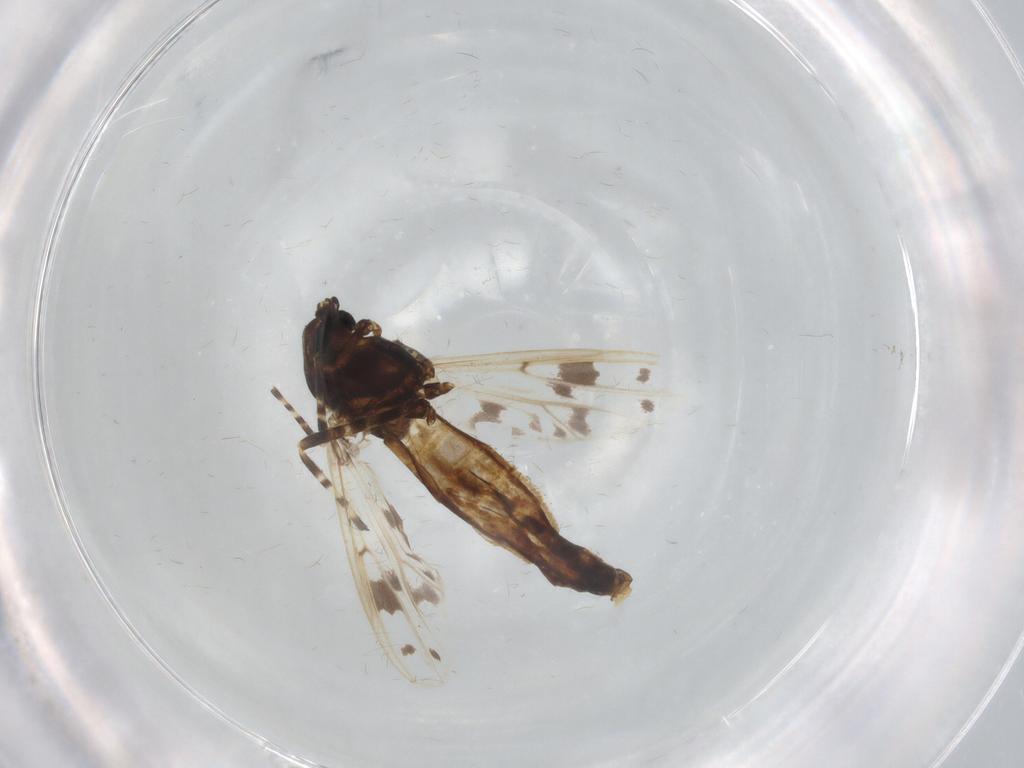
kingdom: Animalia
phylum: Arthropoda
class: Insecta
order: Diptera
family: Chironomidae
